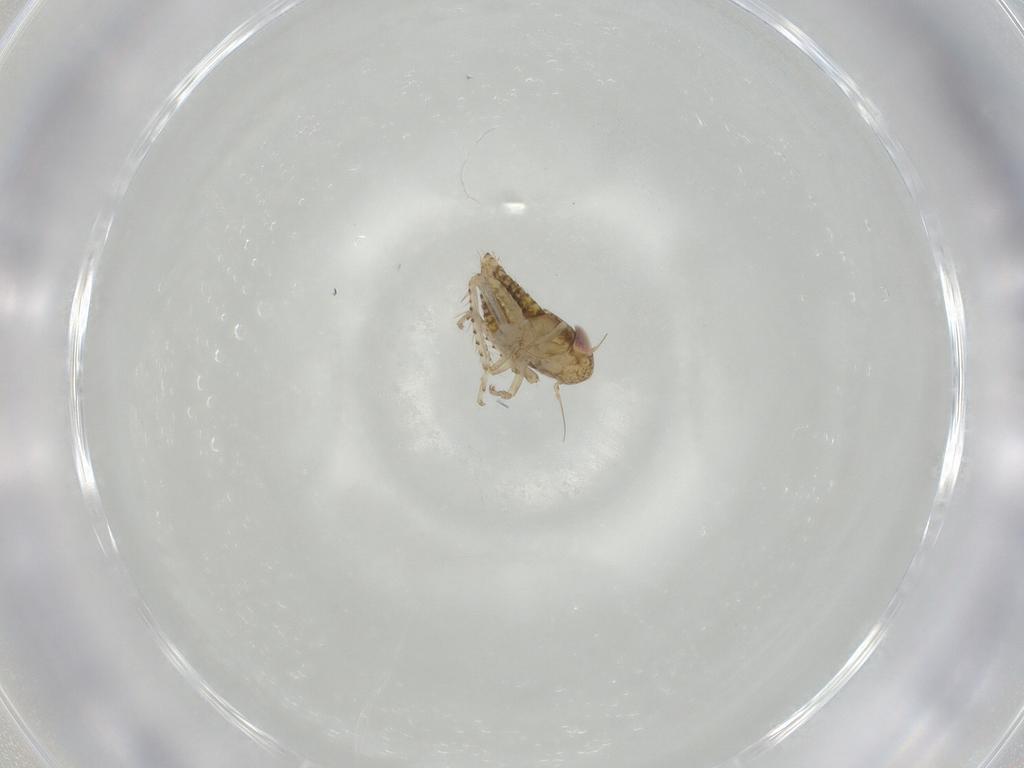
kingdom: Animalia
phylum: Arthropoda
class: Insecta
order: Hemiptera
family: Cicadellidae
